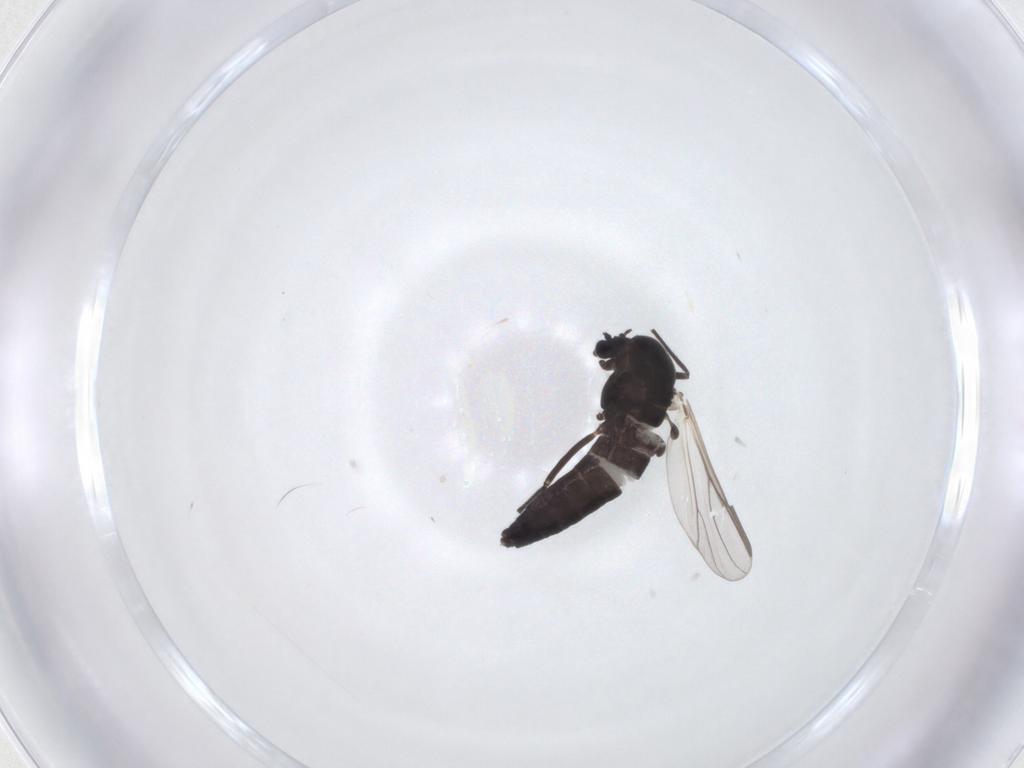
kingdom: Animalia
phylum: Arthropoda
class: Insecta
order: Diptera
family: Chironomidae
